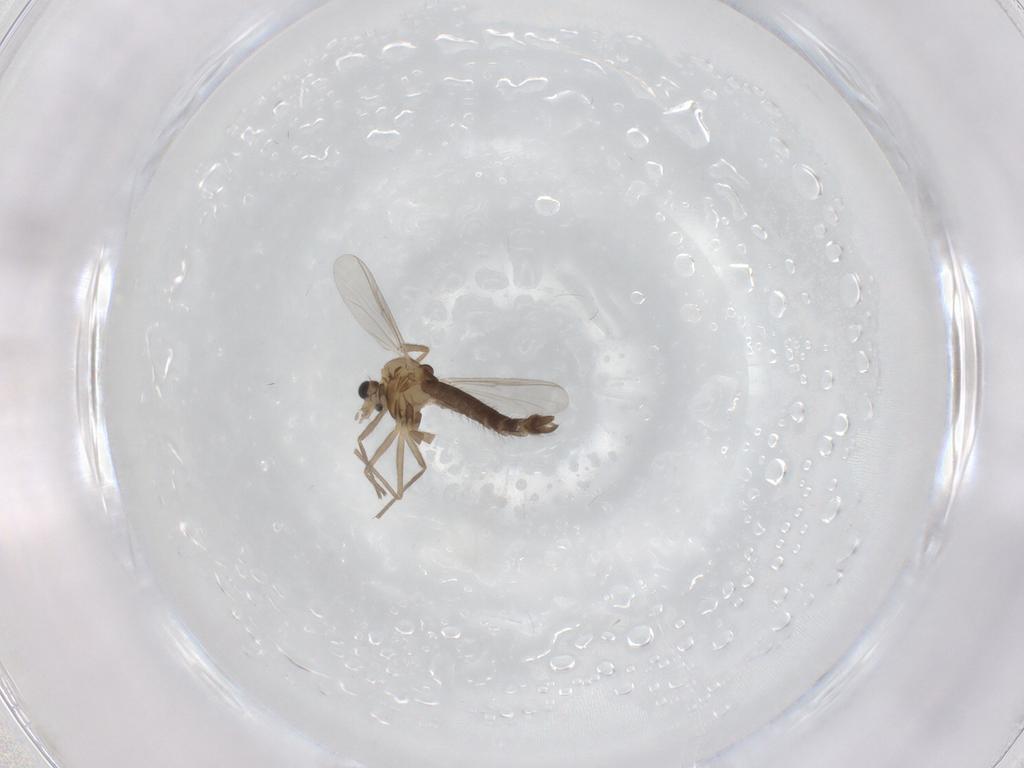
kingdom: Animalia
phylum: Arthropoda
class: Insecta
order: Diptera
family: Chironomidae
